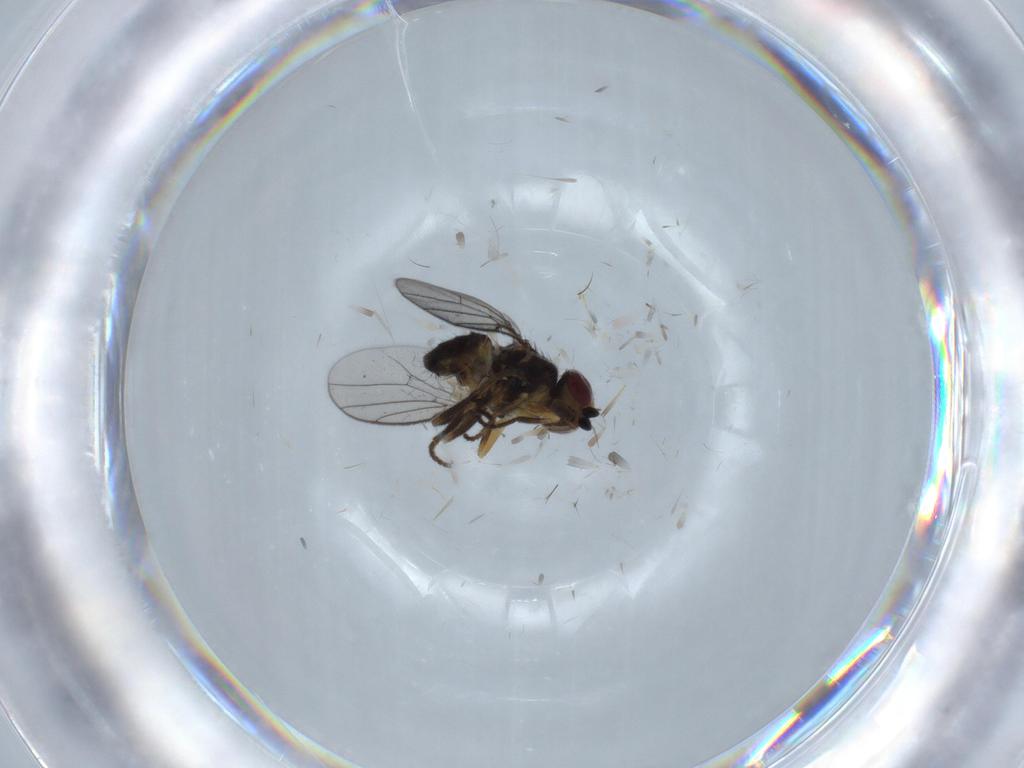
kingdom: Animalia
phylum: Arthropoda
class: Insecta
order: Diptera
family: Chloropidae
